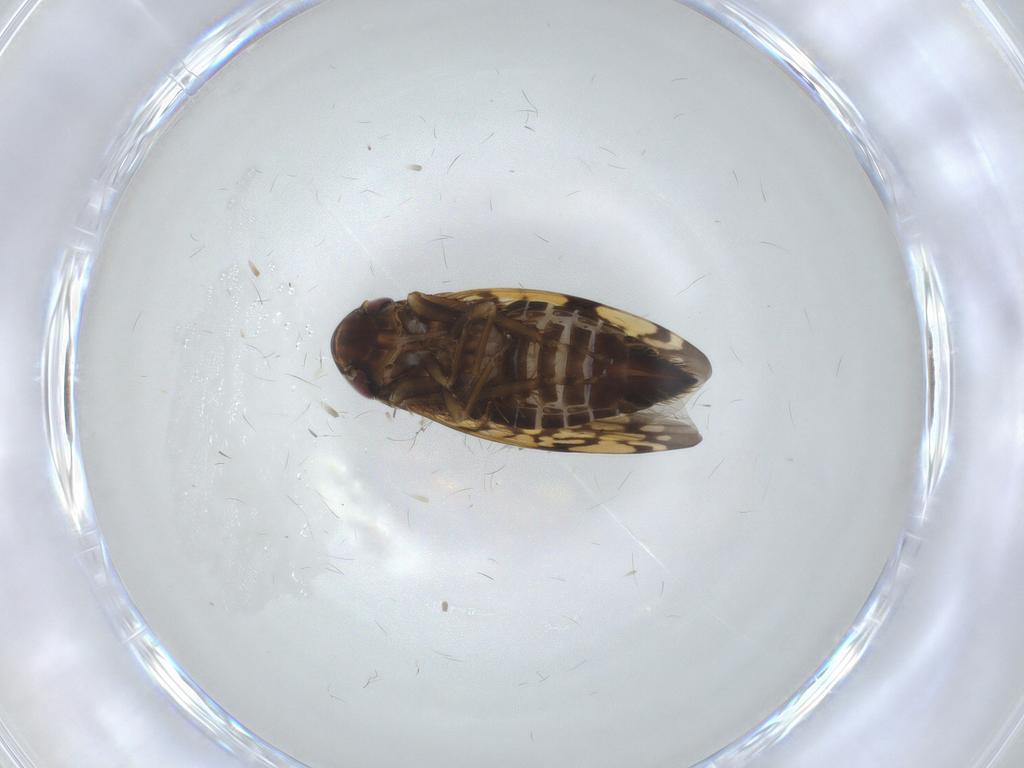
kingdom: Animalia
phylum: Arthropoda
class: Insecta
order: Hemiptera
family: Cicadellidae
